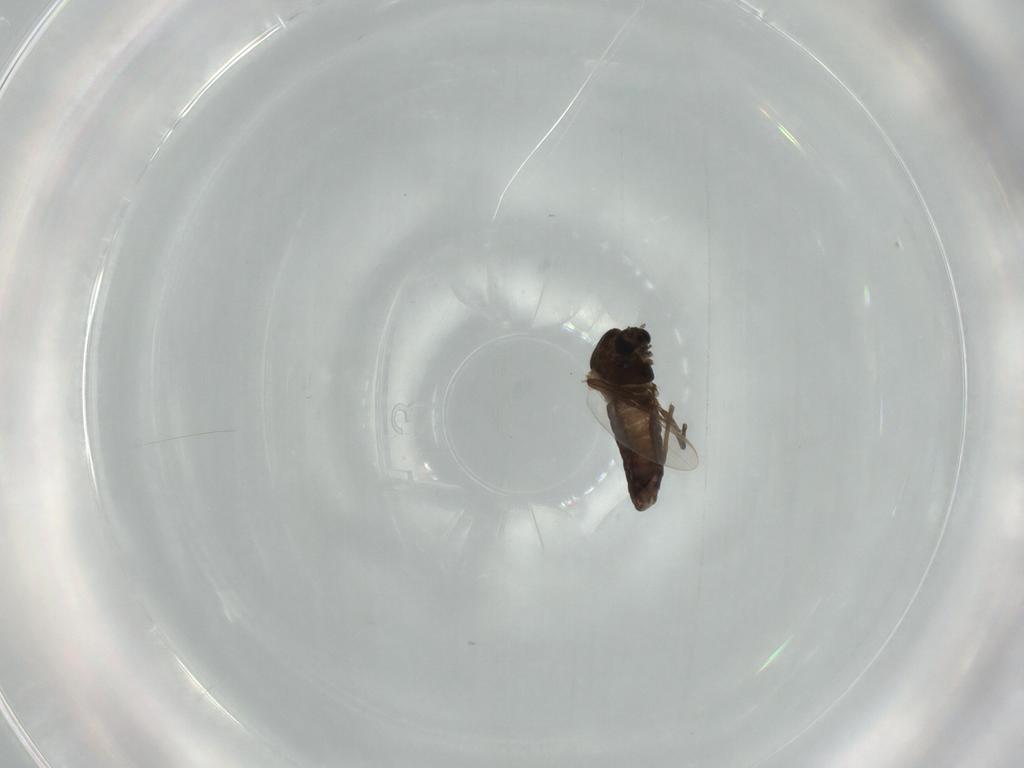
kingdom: Animalia
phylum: Arthropoda
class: Insecta
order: Diptera
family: Chironomidae
